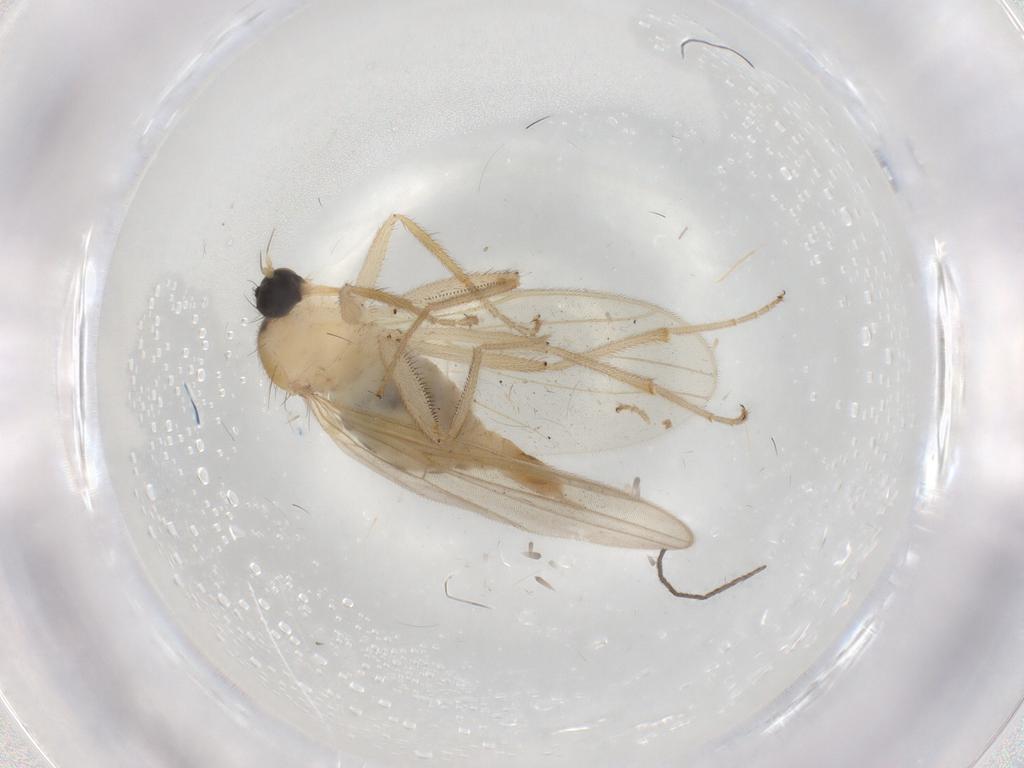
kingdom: Animalia
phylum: Arthropoda
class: Insecta
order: Diptera
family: Hybotidae
